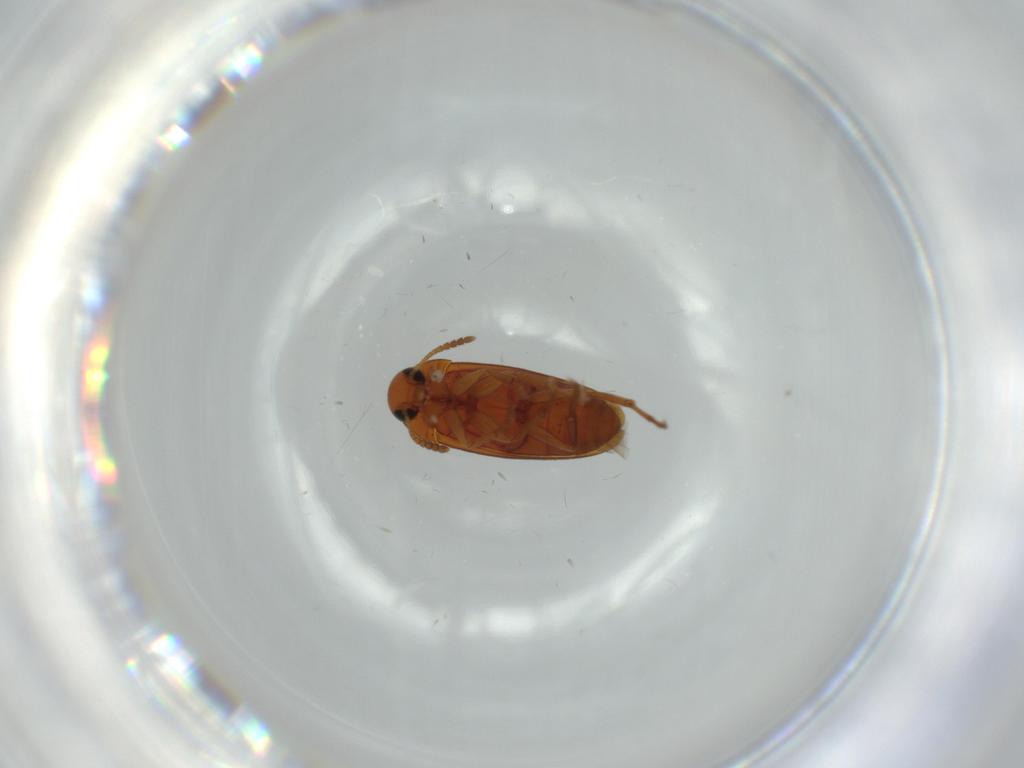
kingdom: Animalia
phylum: Arthropoda
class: Insecta
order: Coleoptera
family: Scraptiidae
